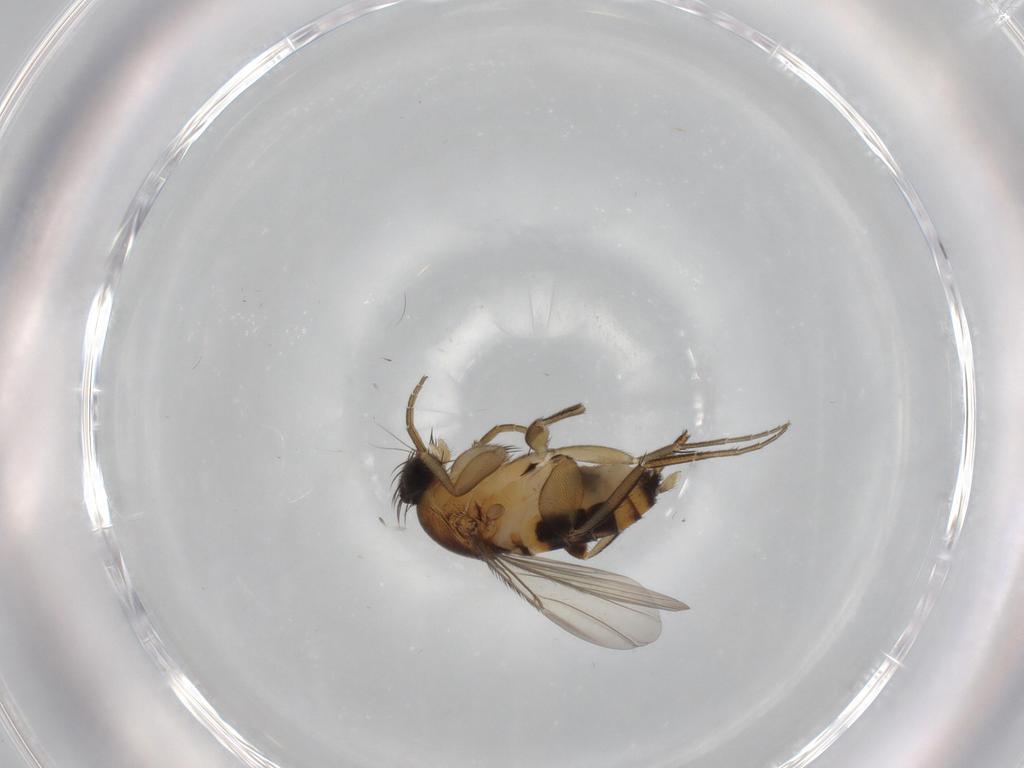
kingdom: Animalia
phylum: Arthropoda
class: Insecta
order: Diptera
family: Phoridae
